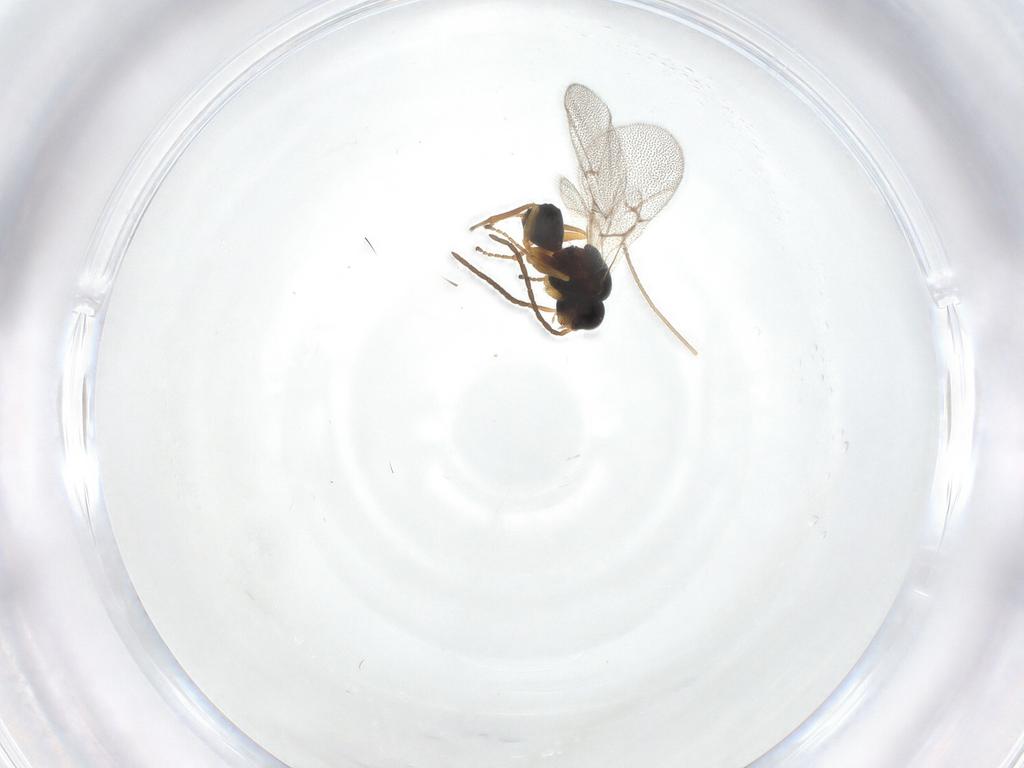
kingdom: Animalia
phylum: Arthropoda
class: Insecta
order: Hymenoptera
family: Cynipidae
